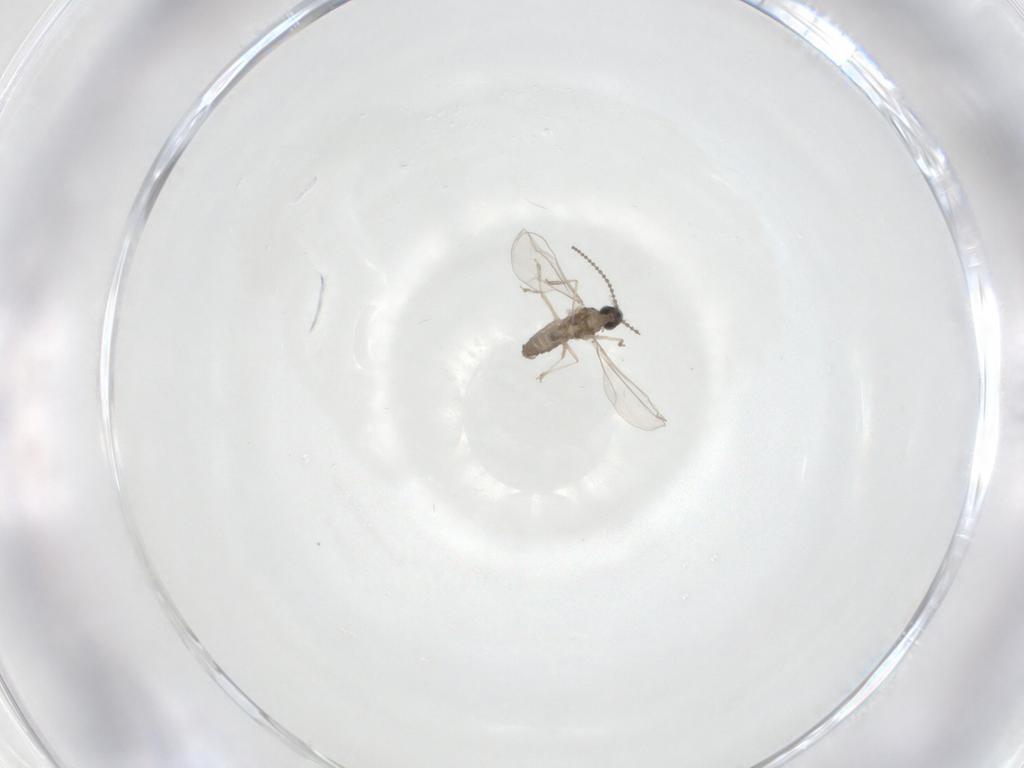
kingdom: Animalia
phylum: Arthropoda
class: Insecta
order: Diptera
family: Cecidomyiidae
